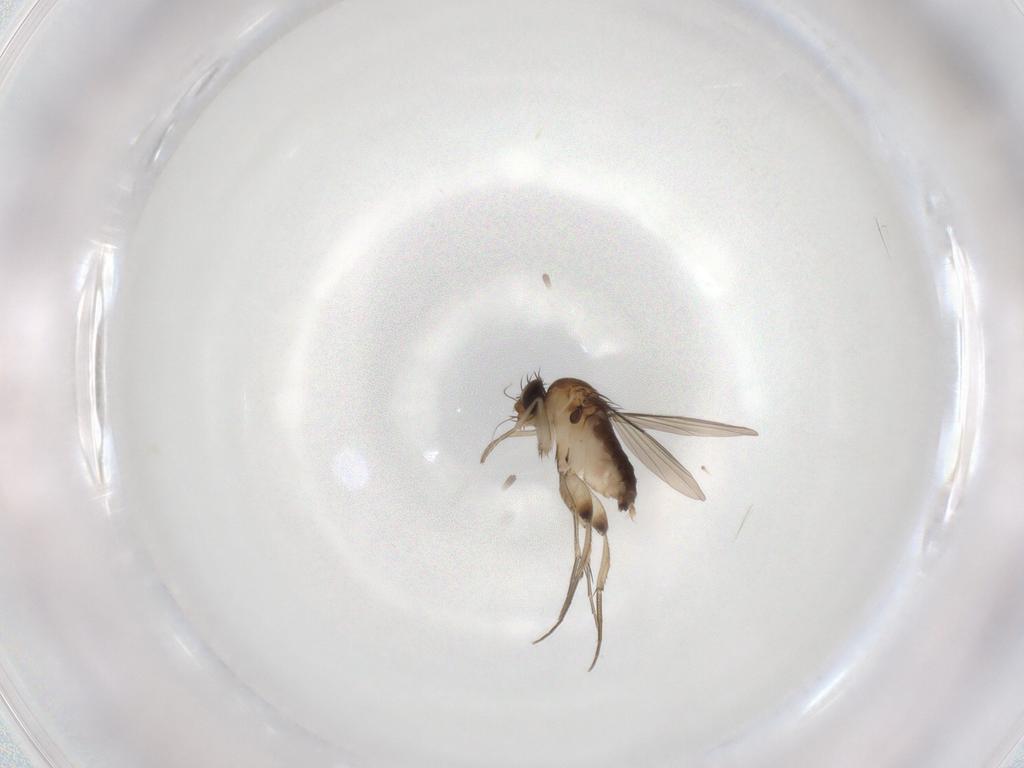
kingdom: Animalia
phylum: Arthropoda
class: Insecta
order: Diptera
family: Phoridae
